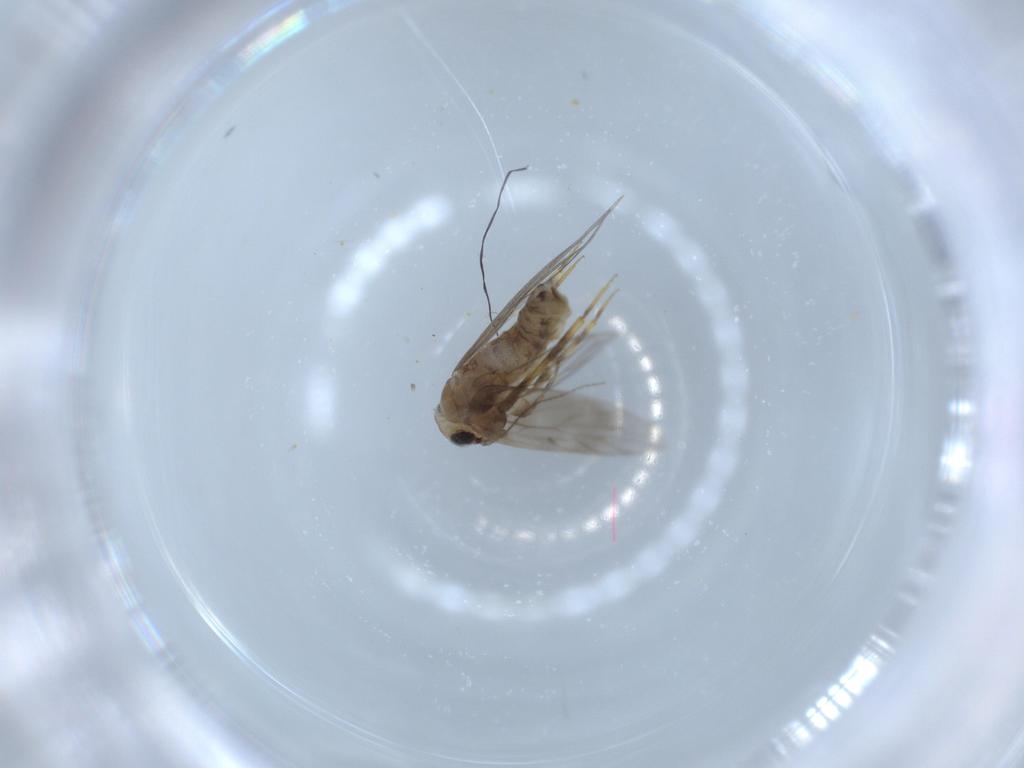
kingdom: Animalia
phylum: Arthropoda
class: Insecta
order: Psocodea
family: Lepidopsocidae
